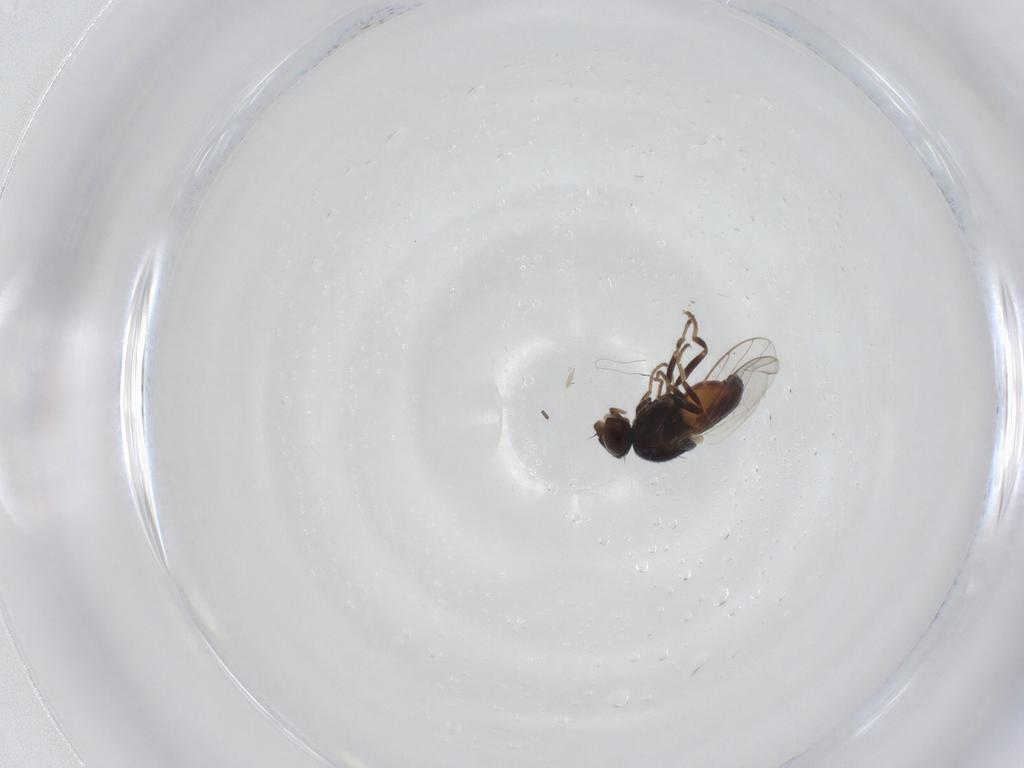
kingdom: Animalia
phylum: Arthropoda
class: Insecta
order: Diptera
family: Chloropidae
